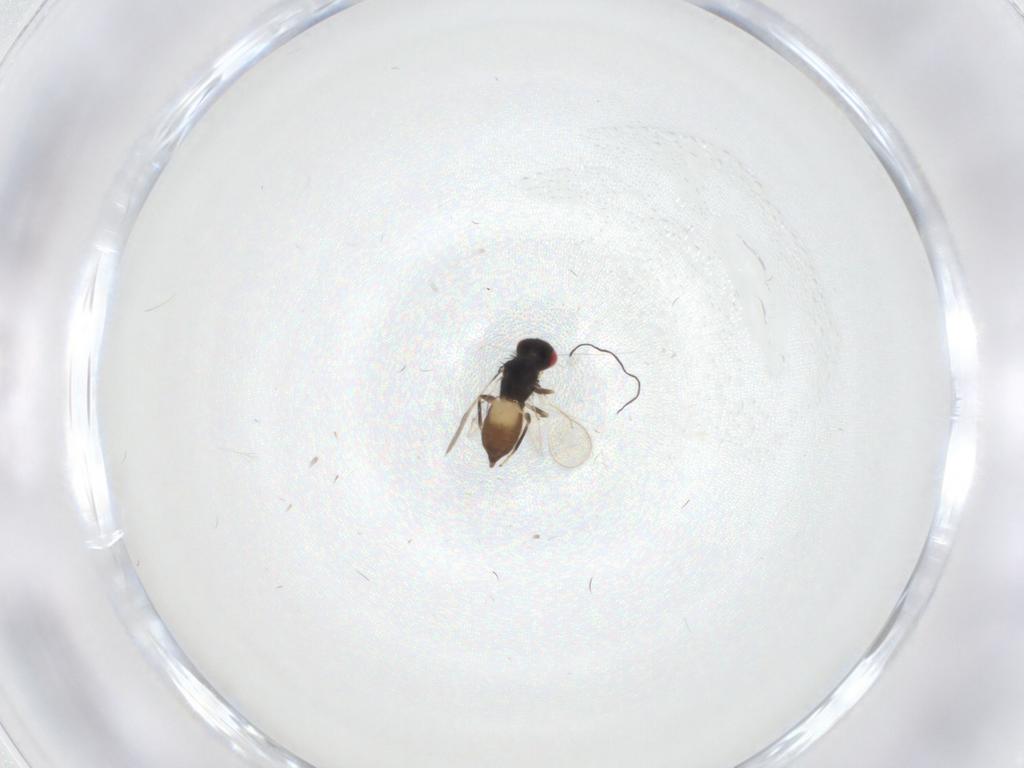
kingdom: Animalia
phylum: Arthropoda
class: Insecta
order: Hymenoptera
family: Eulophidae
